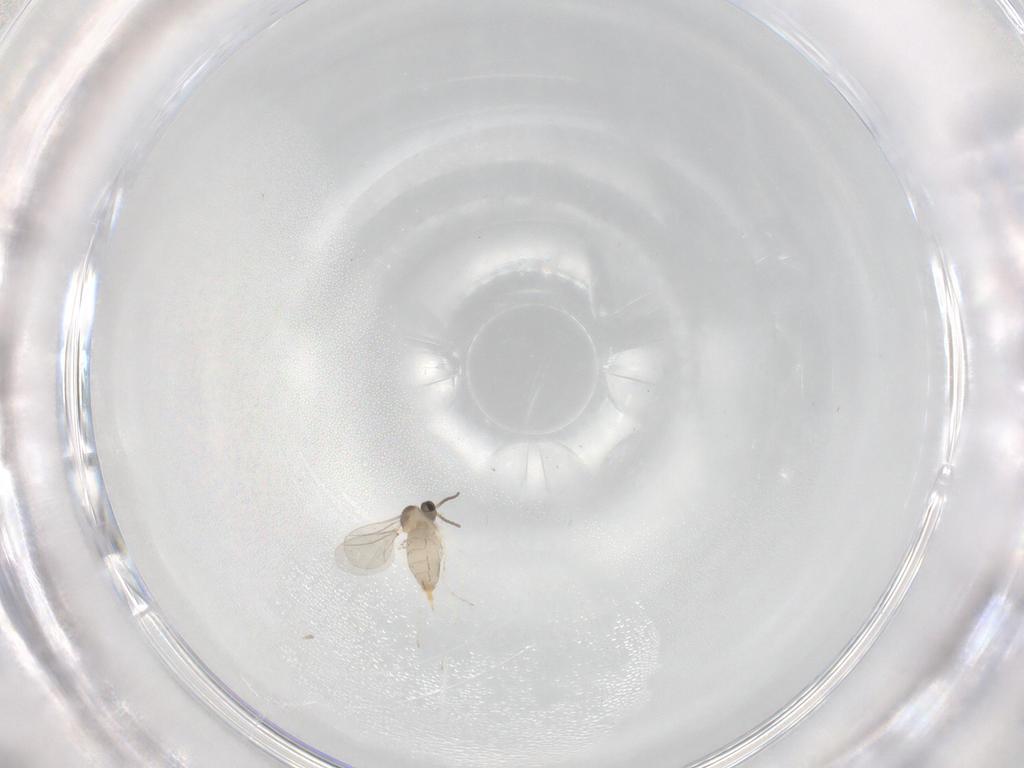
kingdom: Animalia
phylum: Arthropoda
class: Insecta
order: Diptera
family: Cecidomyiidae
